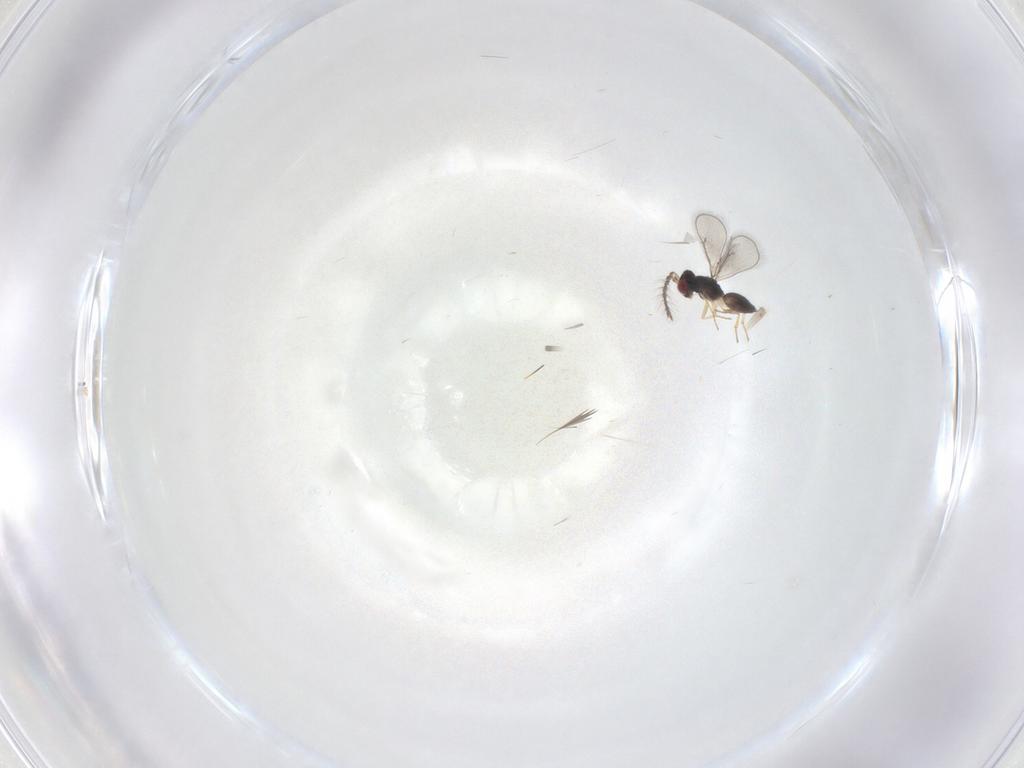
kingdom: Animalia
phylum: Arthropoda
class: Insecta
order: Hymenoptera
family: Eulophidae
